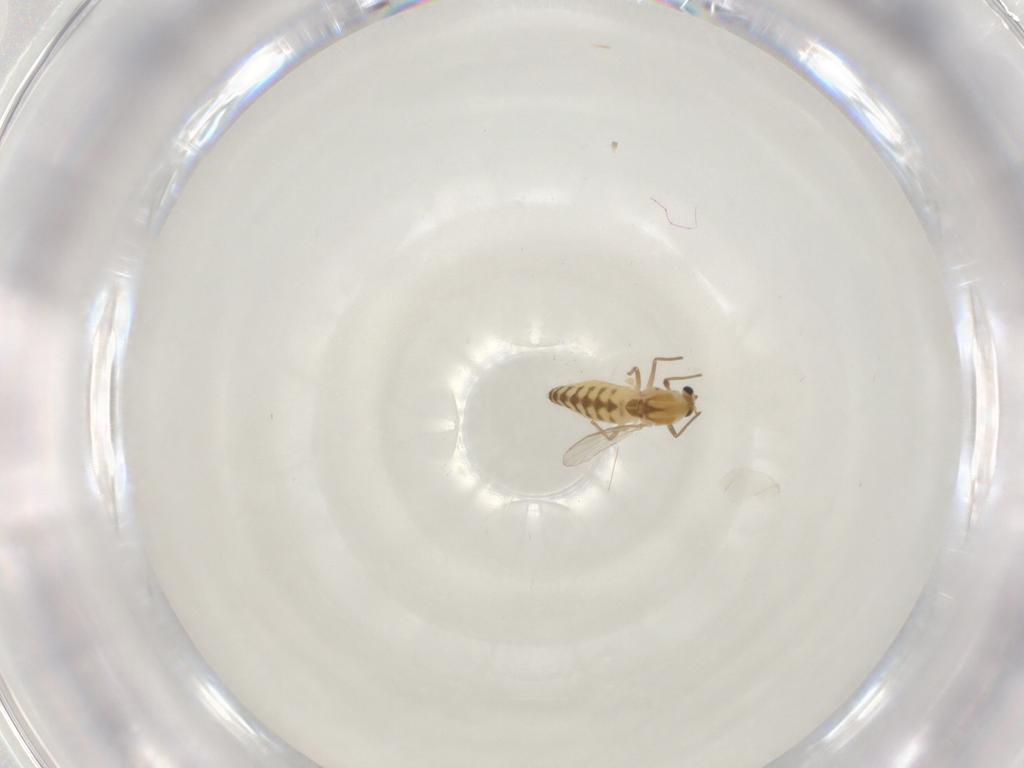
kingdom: Animalia
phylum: Arthropoda
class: Insecta
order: Diptera
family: Chironomidae
